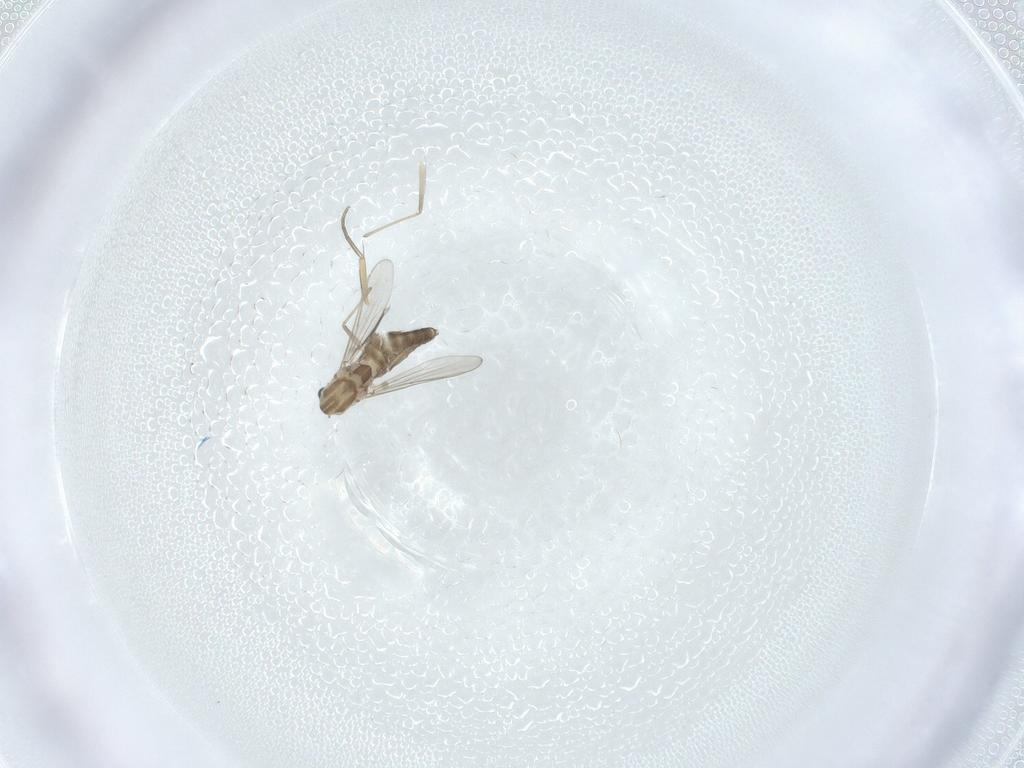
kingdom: Animalia
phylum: Arthropoda
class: Insecta
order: Diptera
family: Chironomidae
